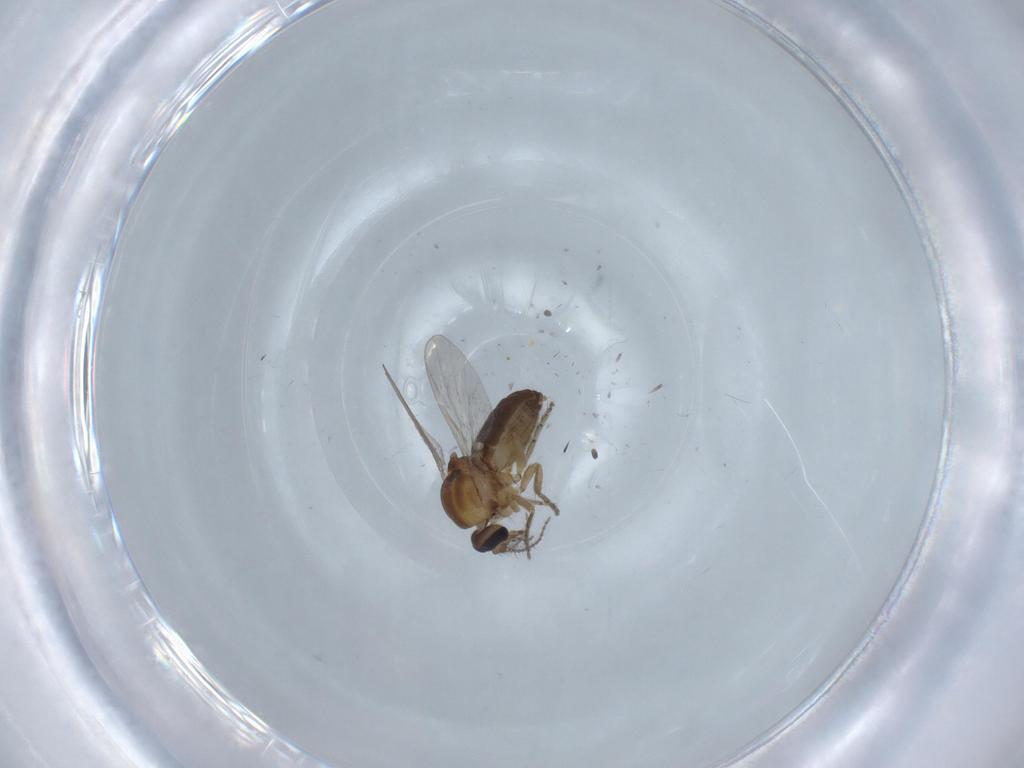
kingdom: Animalia
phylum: Arthropoda
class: Insecta
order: Diptera
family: Ceratopogonidae
